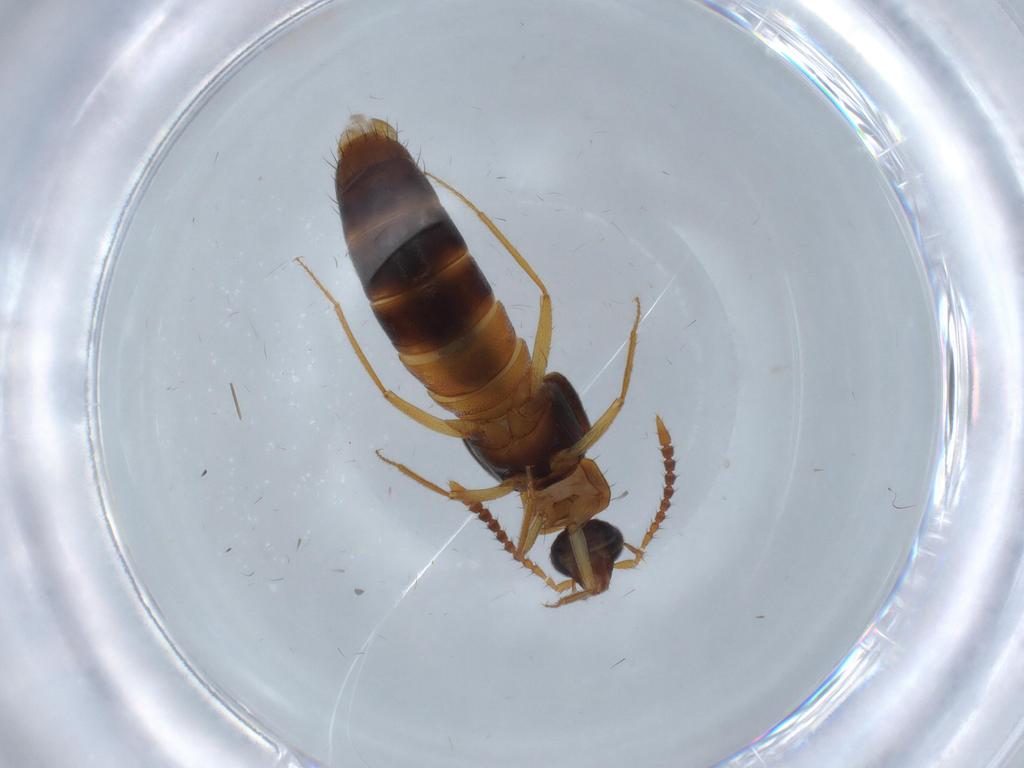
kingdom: Animalia
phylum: Arthropoda
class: Insecta
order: Coleoptera
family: Staphylinidae
